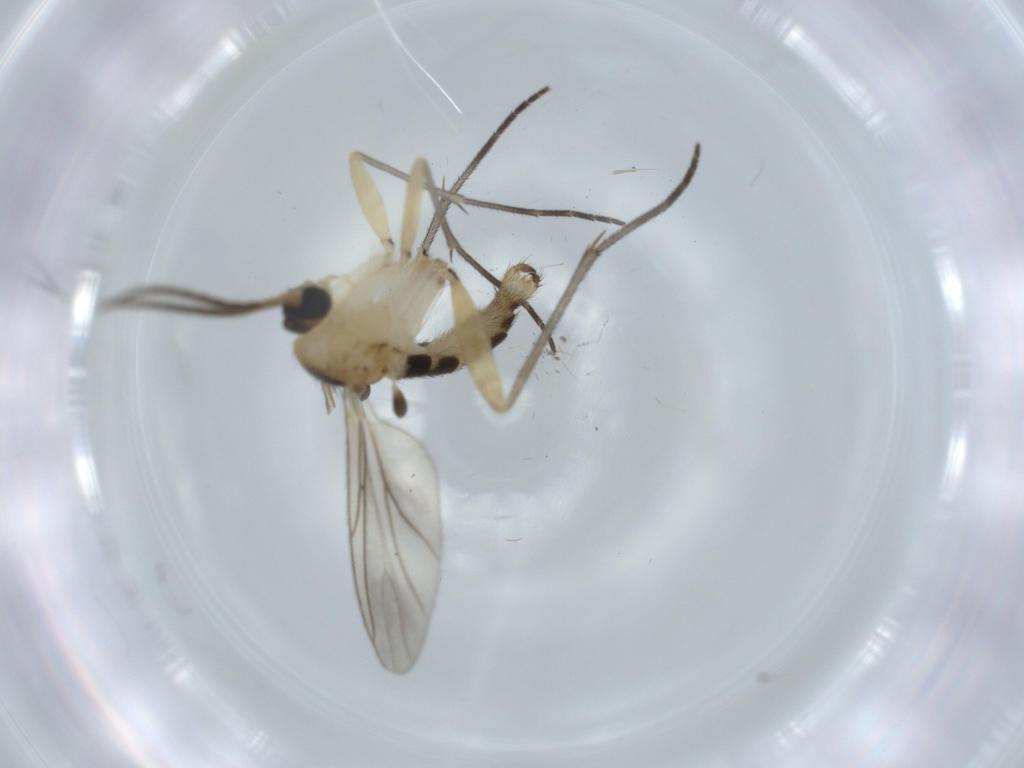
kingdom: Animalia
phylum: Arthropoda
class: Insecta
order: Diptera
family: Sciaridae
